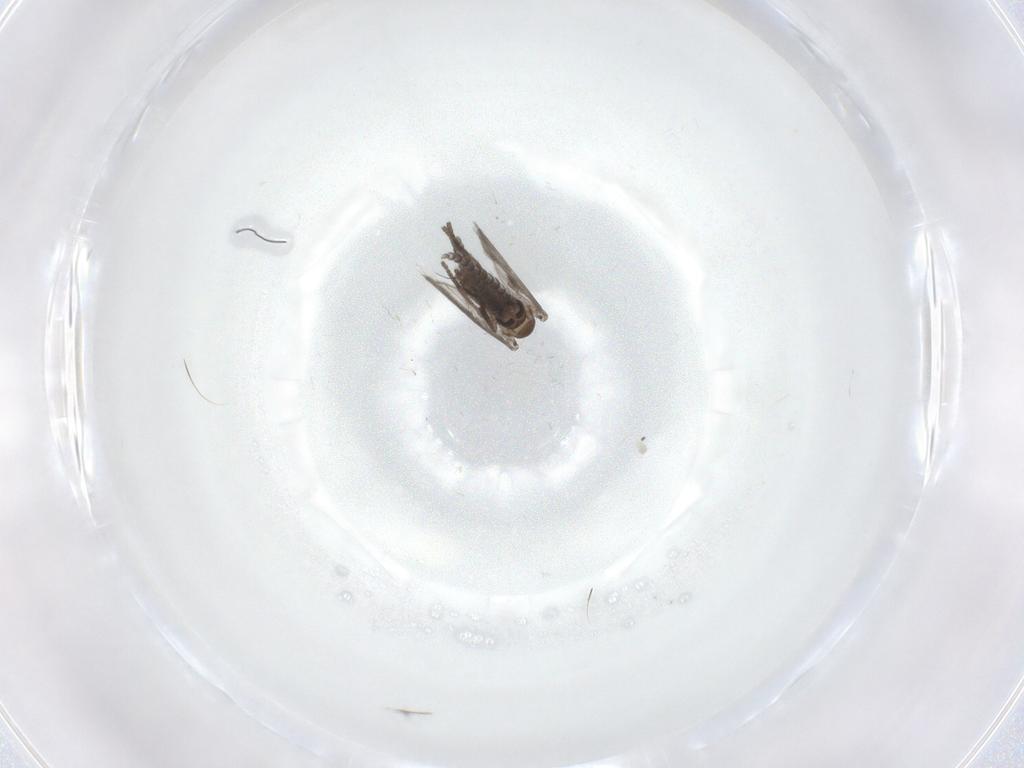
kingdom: Animalia
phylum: Arthropoda
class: Insecta
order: Diptera
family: Psychodidae
